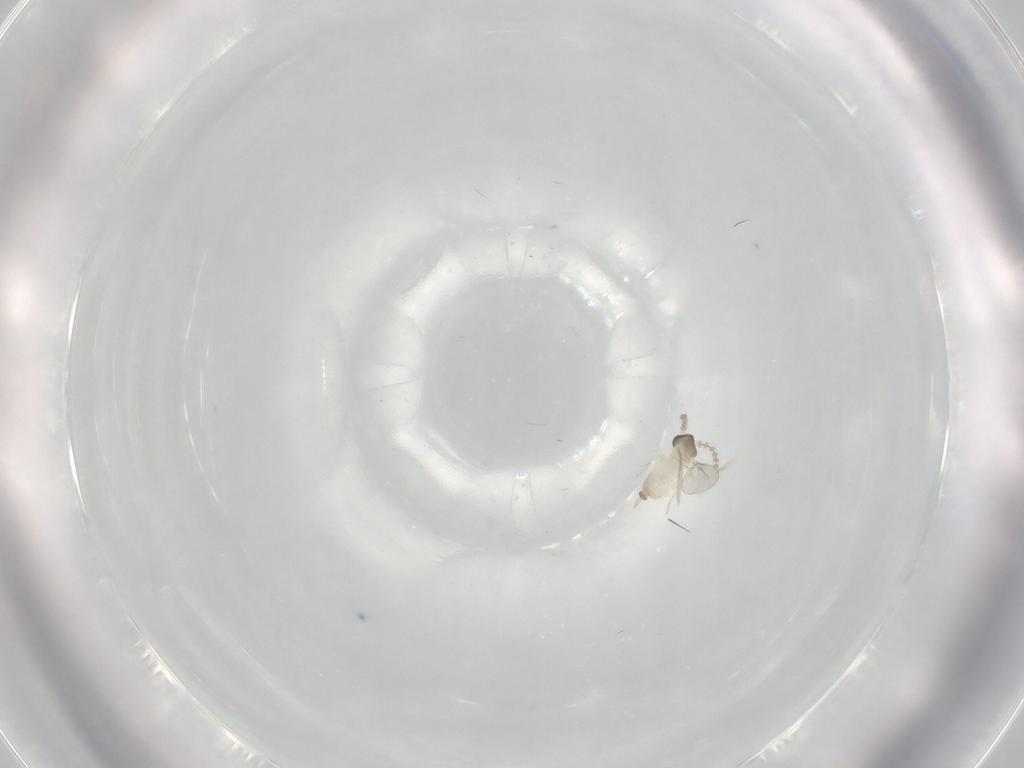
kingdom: Animalia
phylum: Arthropoda
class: Insecta
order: Diptera
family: Cecidomyiidae
